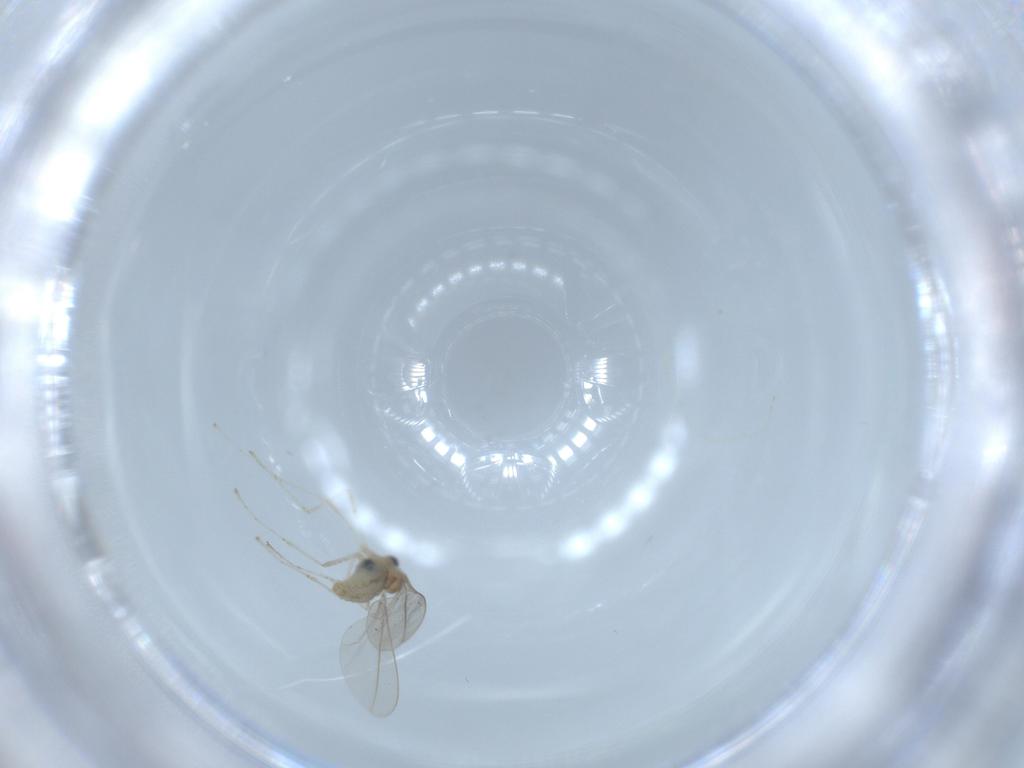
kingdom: Animalia
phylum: Arthropoda
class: Insecta
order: Diptera
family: Cecidomyiidae
